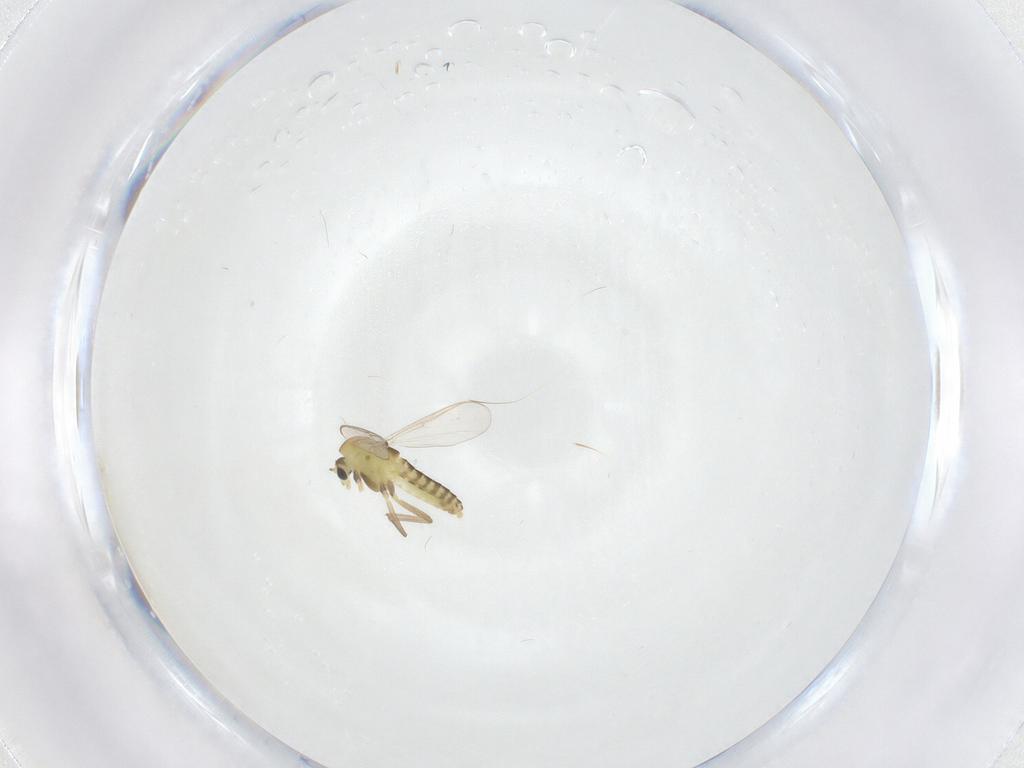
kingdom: Animalia
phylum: Arthropoda
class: Insecta
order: Diptera
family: Chironomidae
